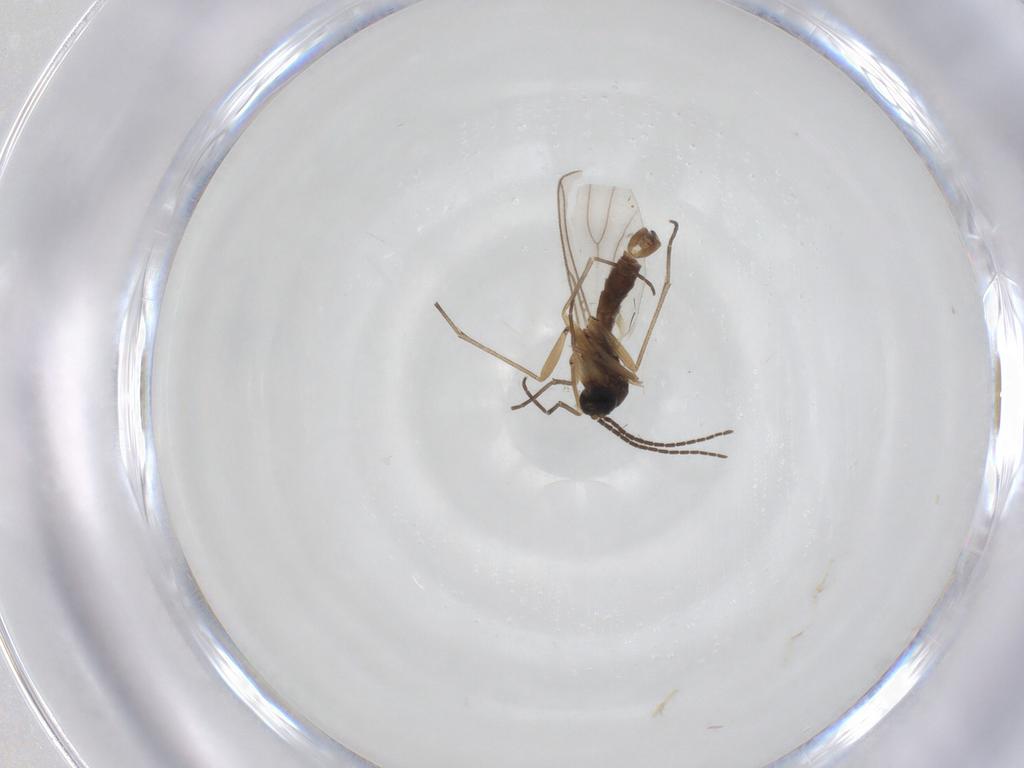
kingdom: Animalia
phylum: Arthropoda
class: Insecta
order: Diptera
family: Sciaridae
